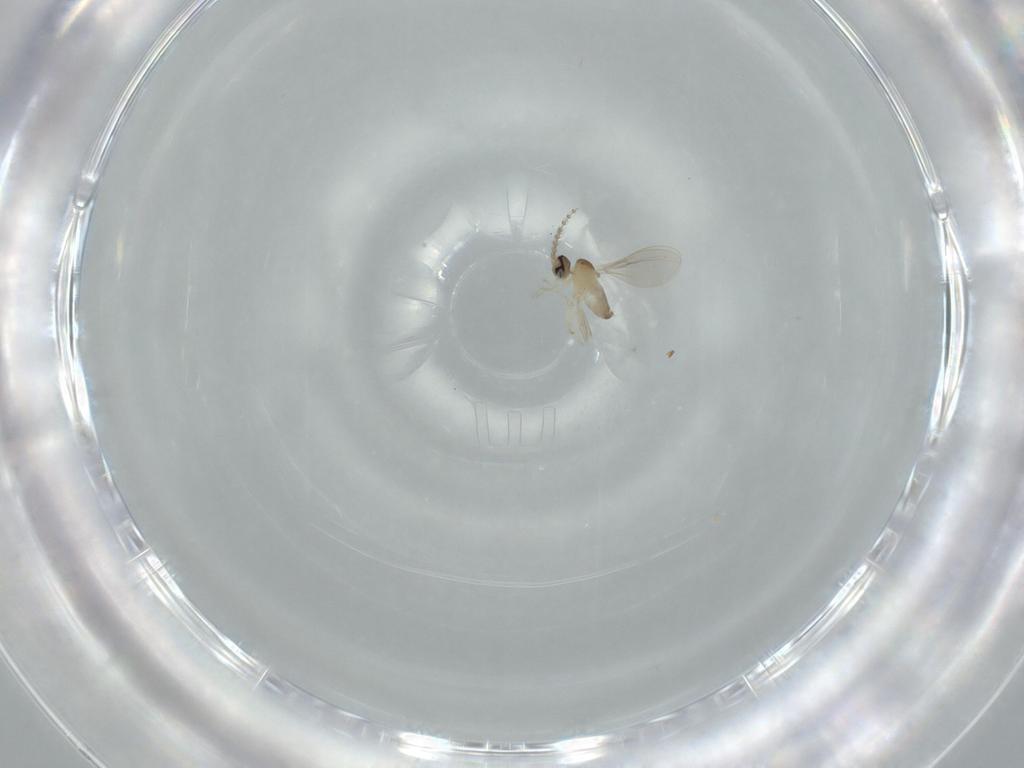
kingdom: Animalia
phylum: Arthropoda
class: Insecta
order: Diptera
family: Cecidomyiidae
